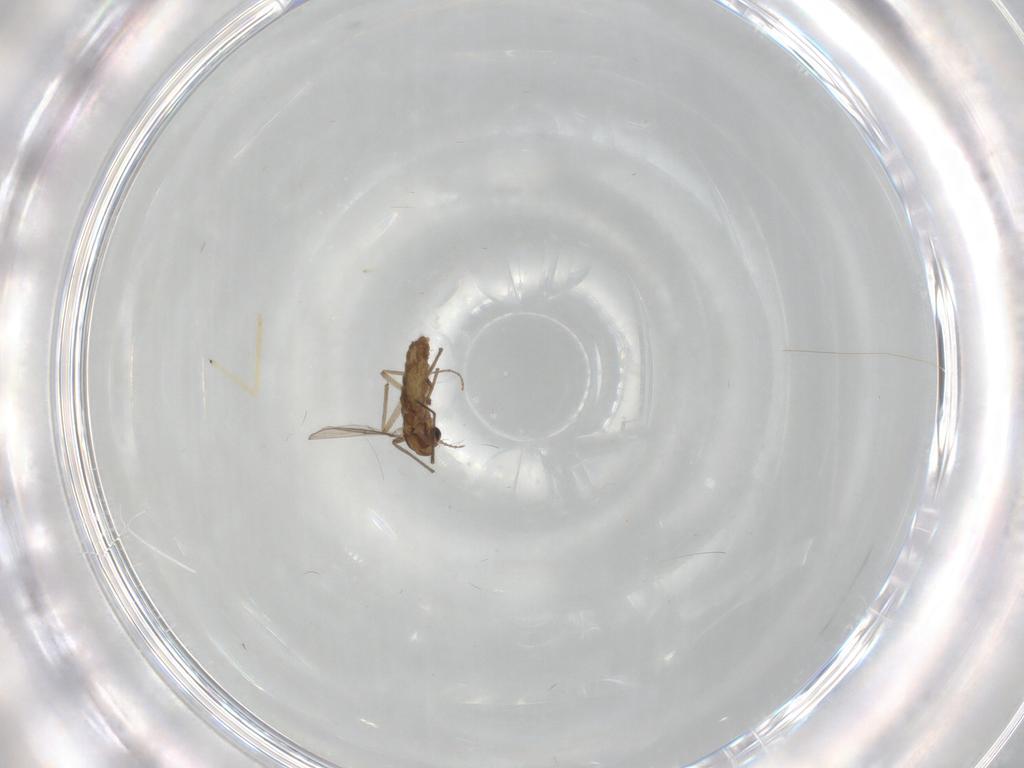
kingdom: Animalia
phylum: Arthropoda
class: Insecta
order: Diptera
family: Chironomidae
